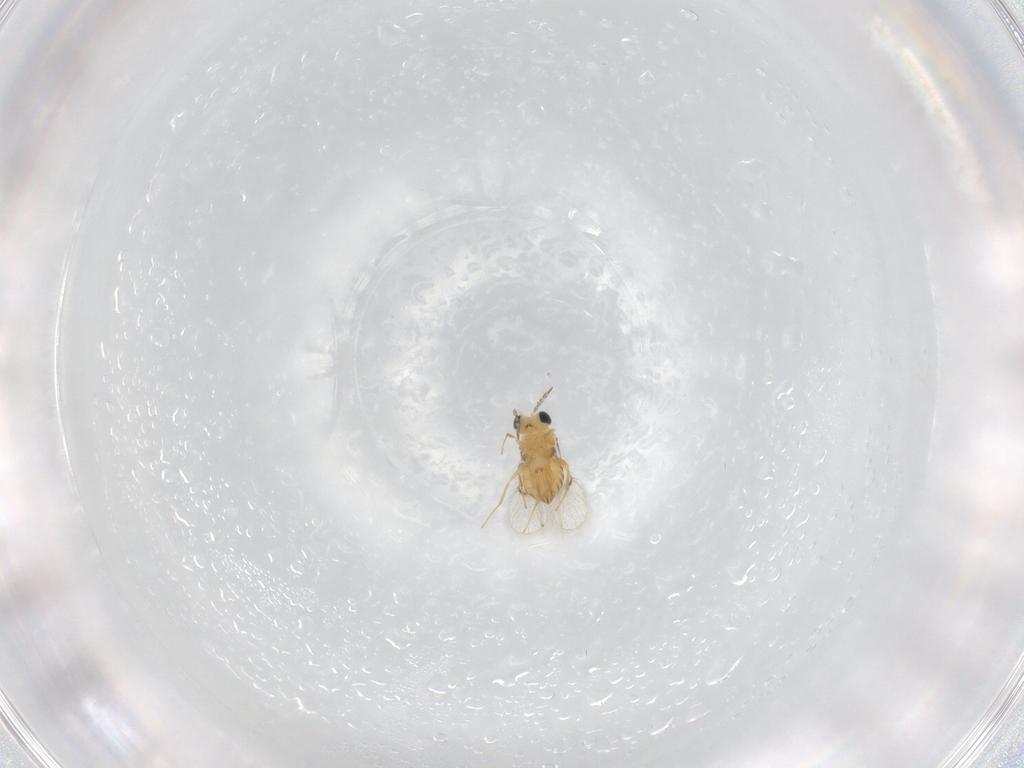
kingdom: Animalia
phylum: Arthropoda
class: Insecta
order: Hymenoptera
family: Trichogrammatidae
